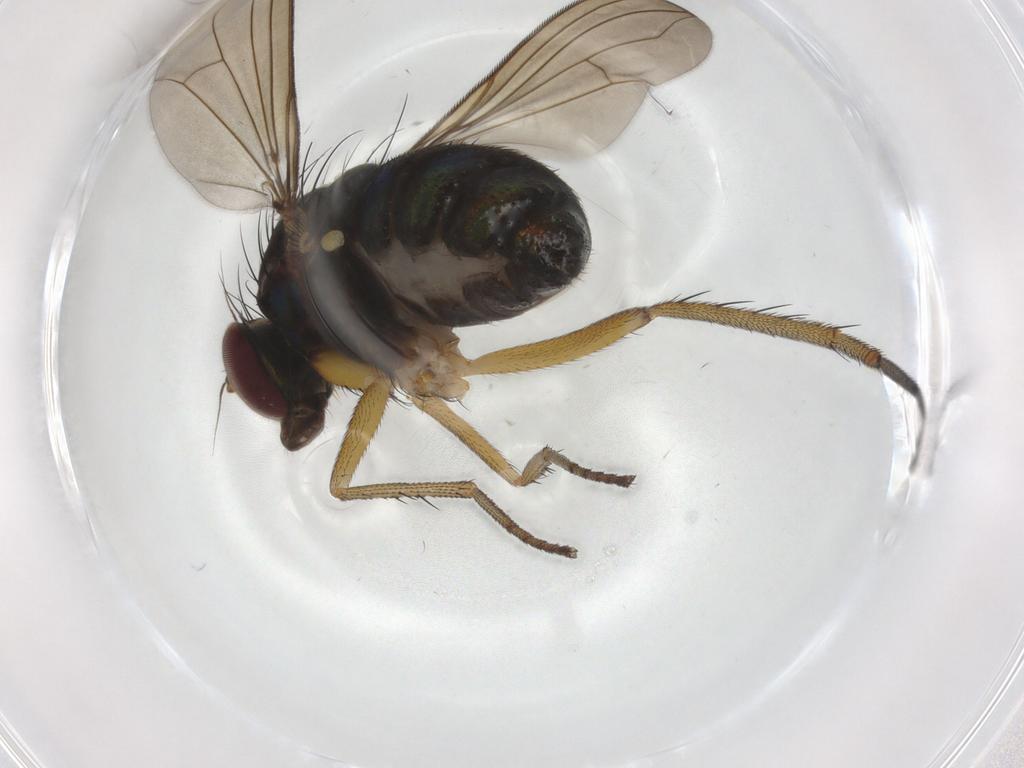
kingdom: Animalia
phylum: Arthropoda
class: Insecta
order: Diptera
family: Dolichopodidae
